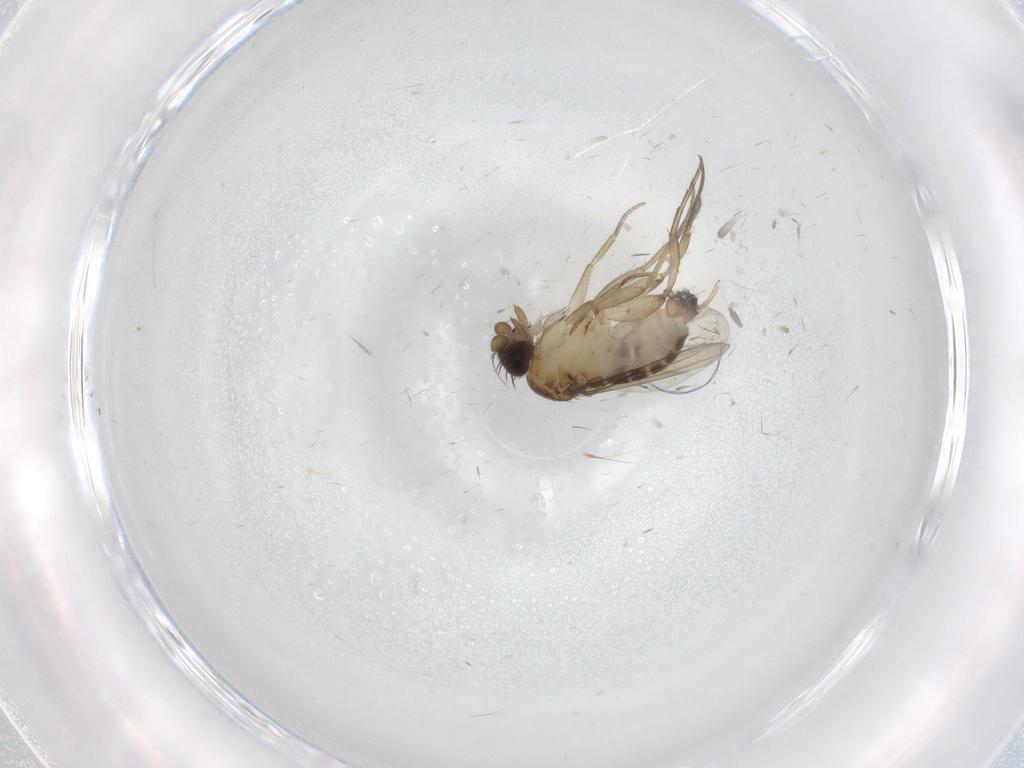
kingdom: Animalia
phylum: Arthropoda
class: Insecta
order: Diptera
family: Chironomidae
